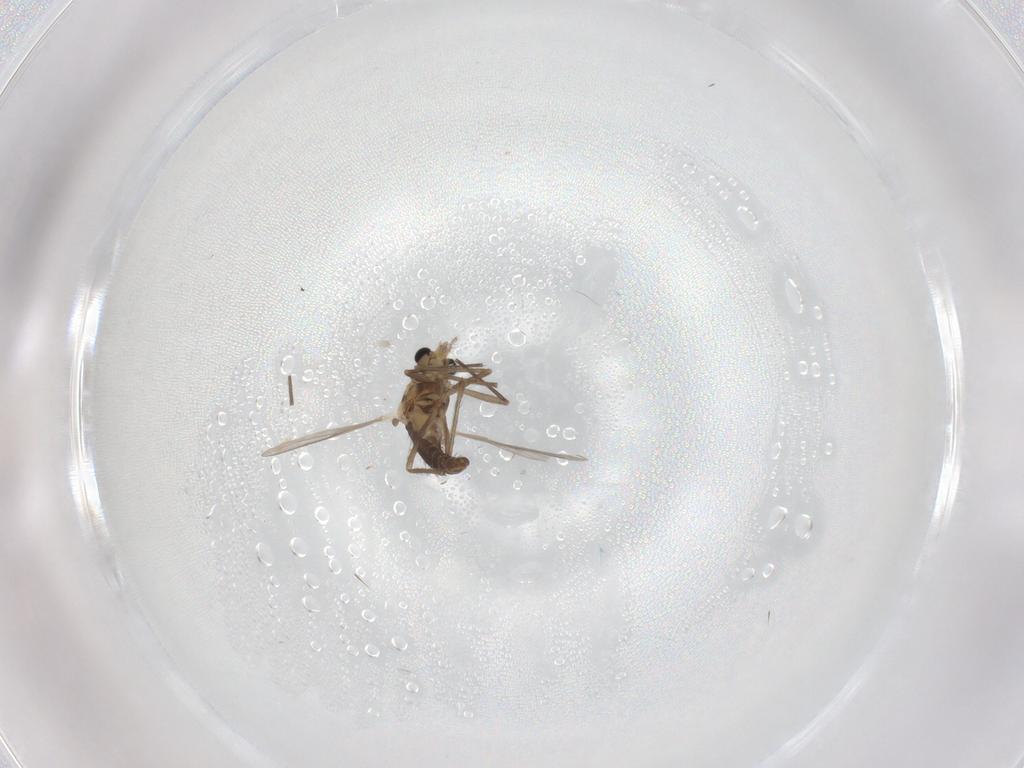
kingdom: Animalia
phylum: Arthropoda
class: Insecta
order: Diptera
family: Chironomidae
